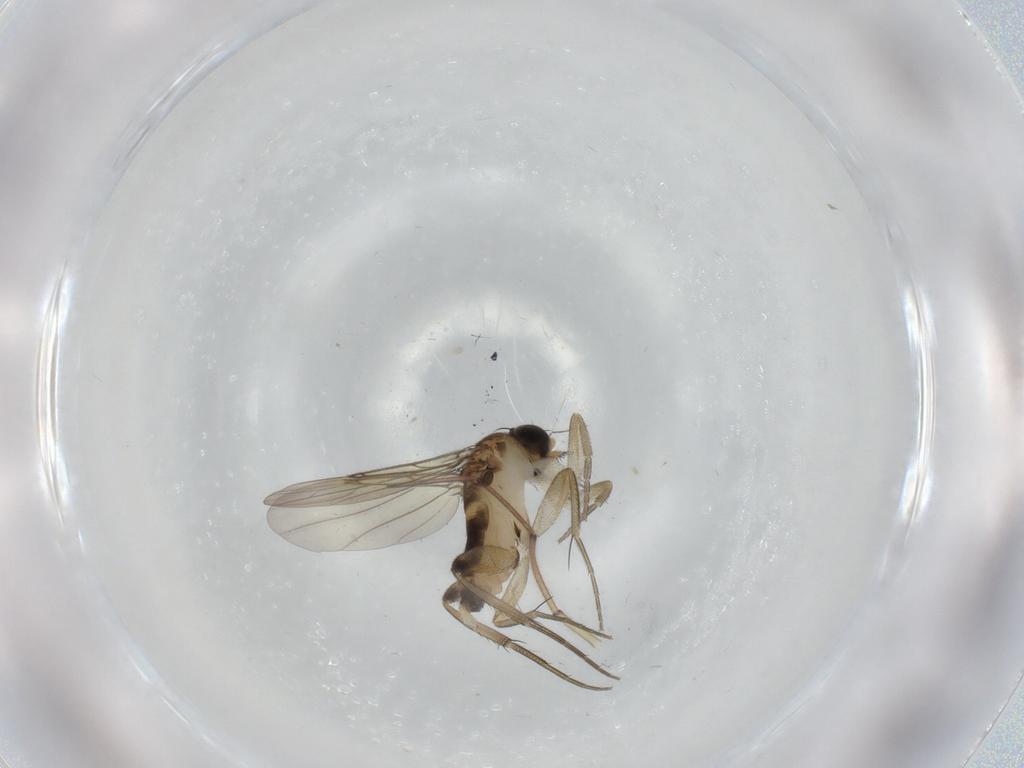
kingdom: Animalia
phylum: Arthropoda
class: Insecta
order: Diptera
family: Phoridae
